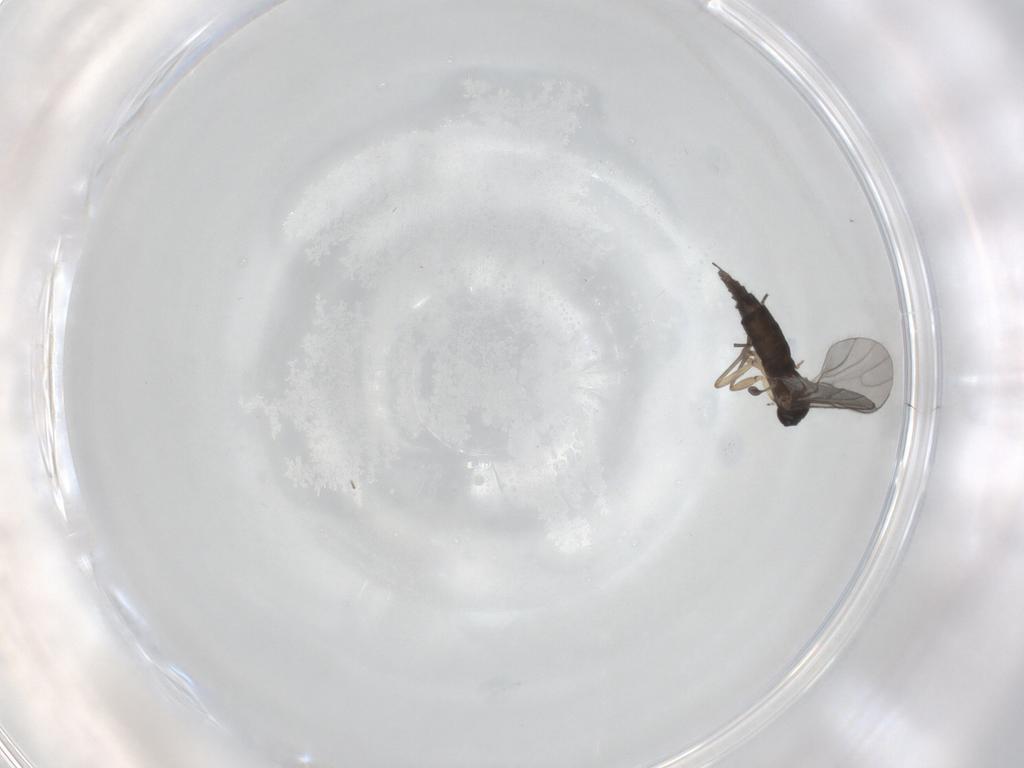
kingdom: Animalia
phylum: Arthropoda
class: Insecta
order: Diptera
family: Sciaridae
